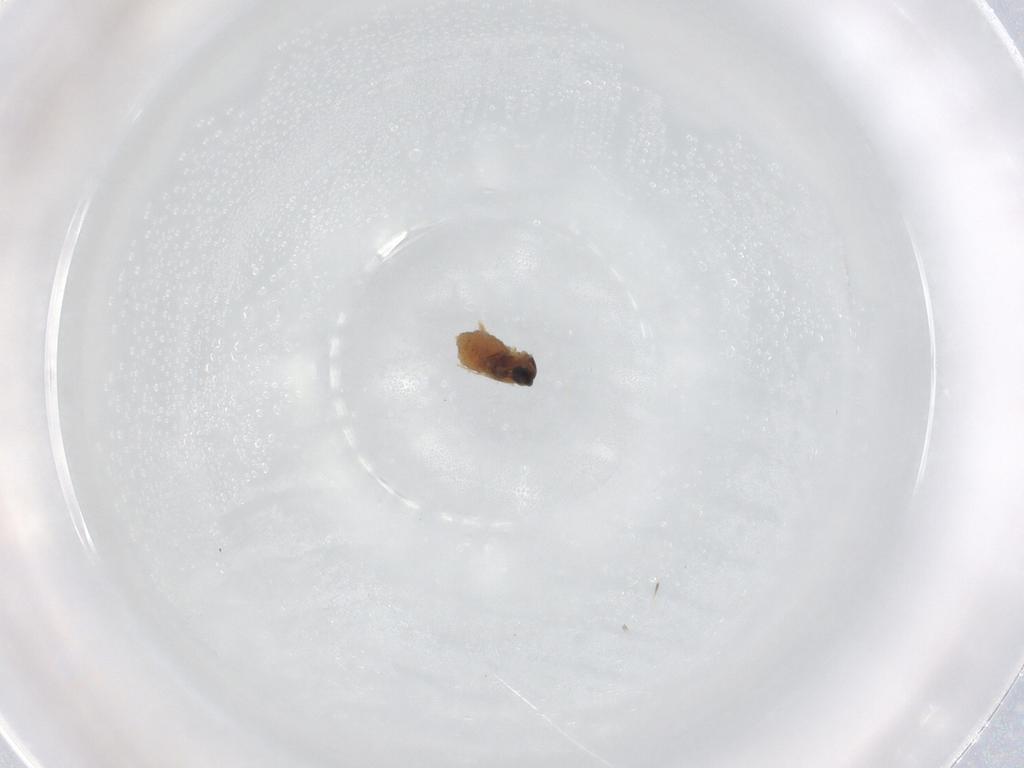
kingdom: Animalia
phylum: Arthropoda
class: Insecta
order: Diptera
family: Cecidomyiidae
